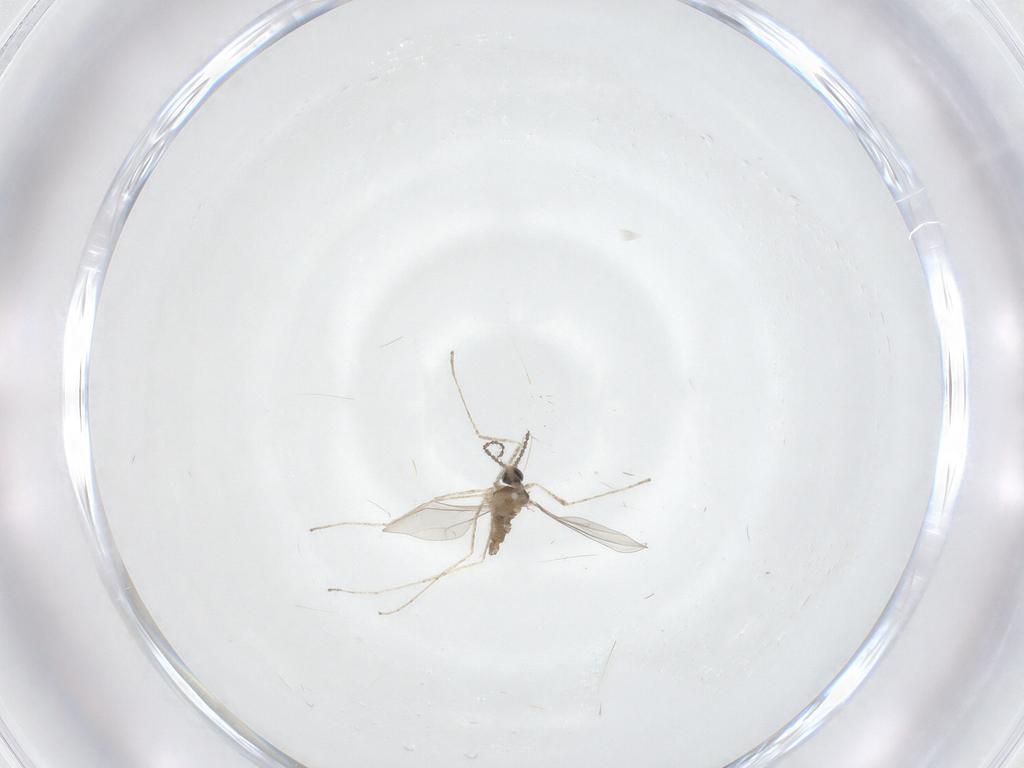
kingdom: Animalia
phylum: Arthropoda
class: Insecta
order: Diptera
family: Cecidomyiidae
